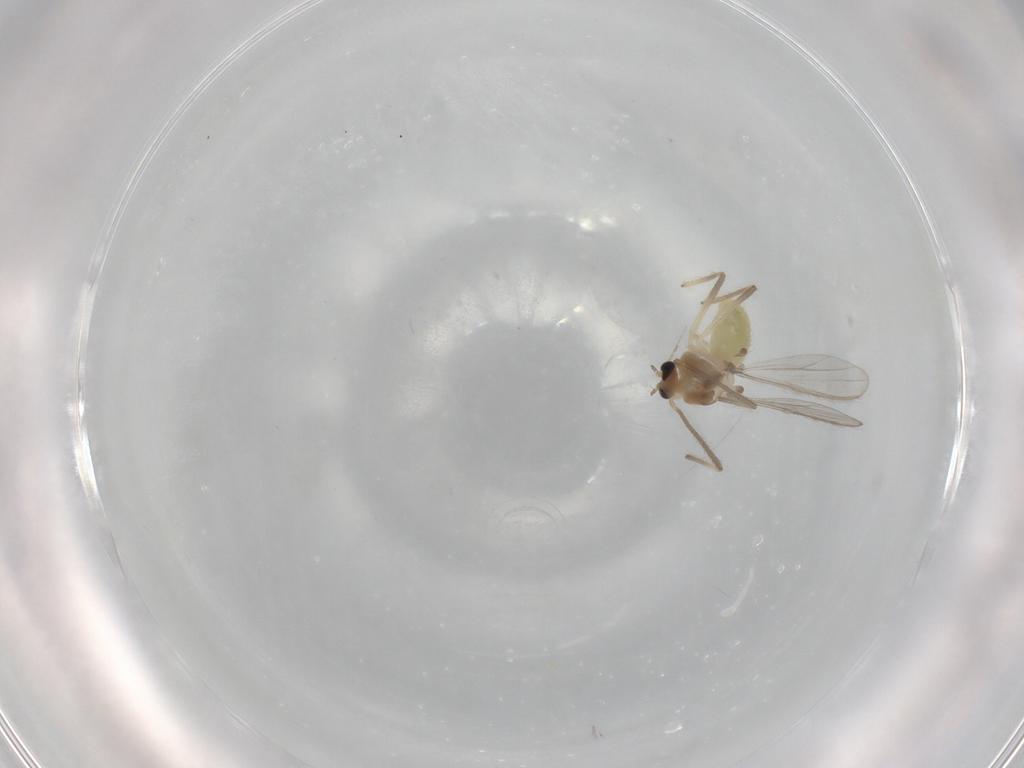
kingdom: Animalia
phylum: Arthropoda
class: Insecta
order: Diptera
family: Chironomidae
